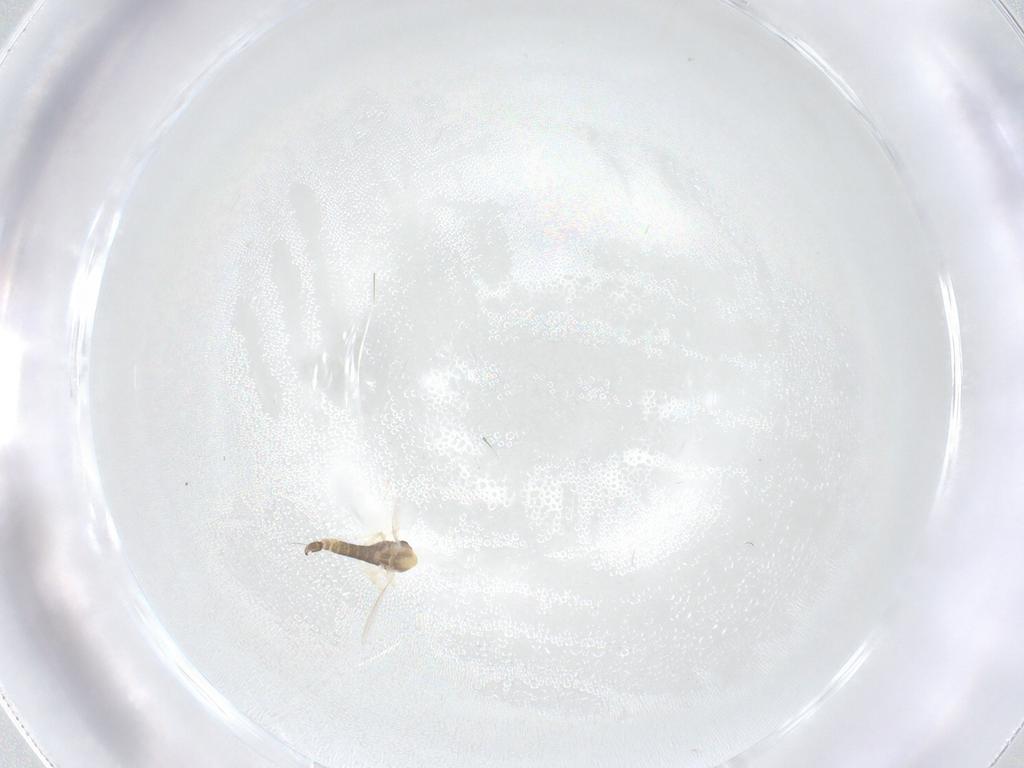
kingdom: Animalia
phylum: Arthropoda
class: Insecta
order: Diptera
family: Chironomidae
